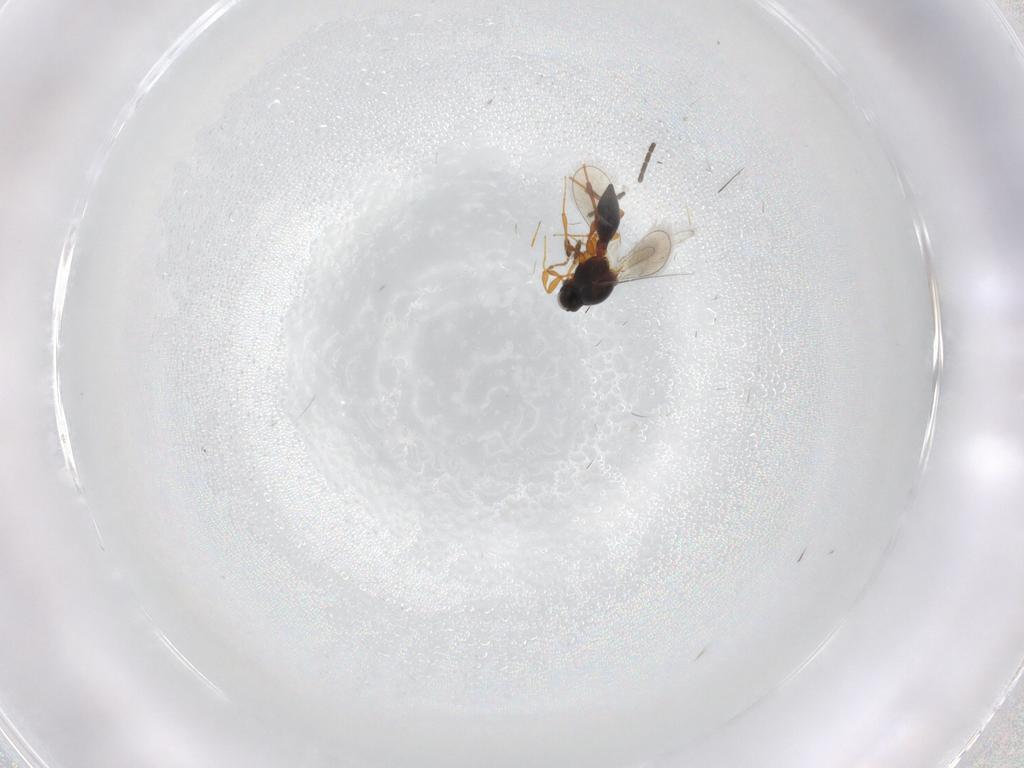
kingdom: Animalia
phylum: Arthropoda
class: Insecta
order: Hymenoptera
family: Platygastridae
